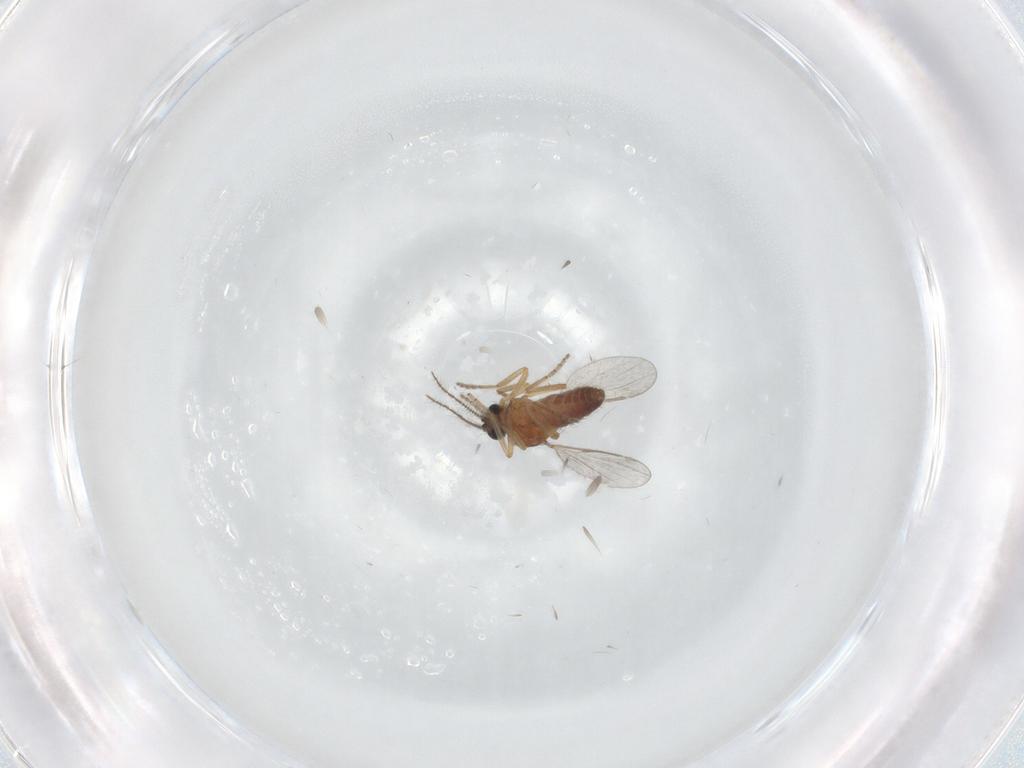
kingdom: Animalia
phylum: Arthropoda
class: Insecta
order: Diptera
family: Ceratopogonidae
